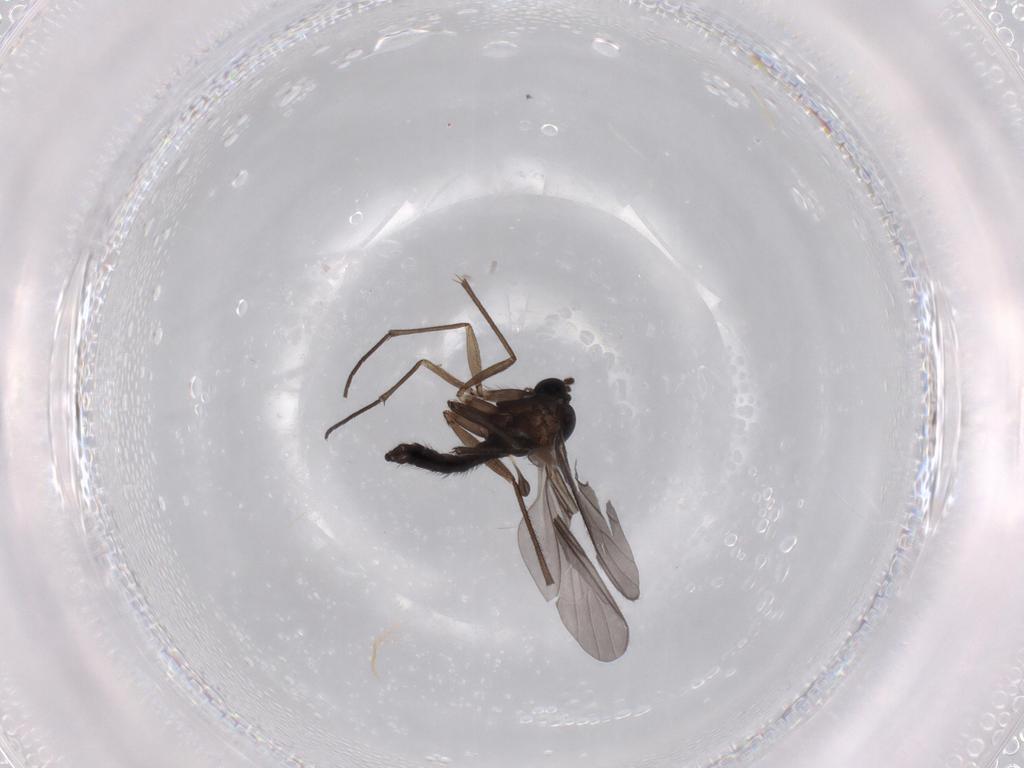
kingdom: Animalia
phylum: Arthropoda
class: Insecta
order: Diptera
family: Sciaridae
